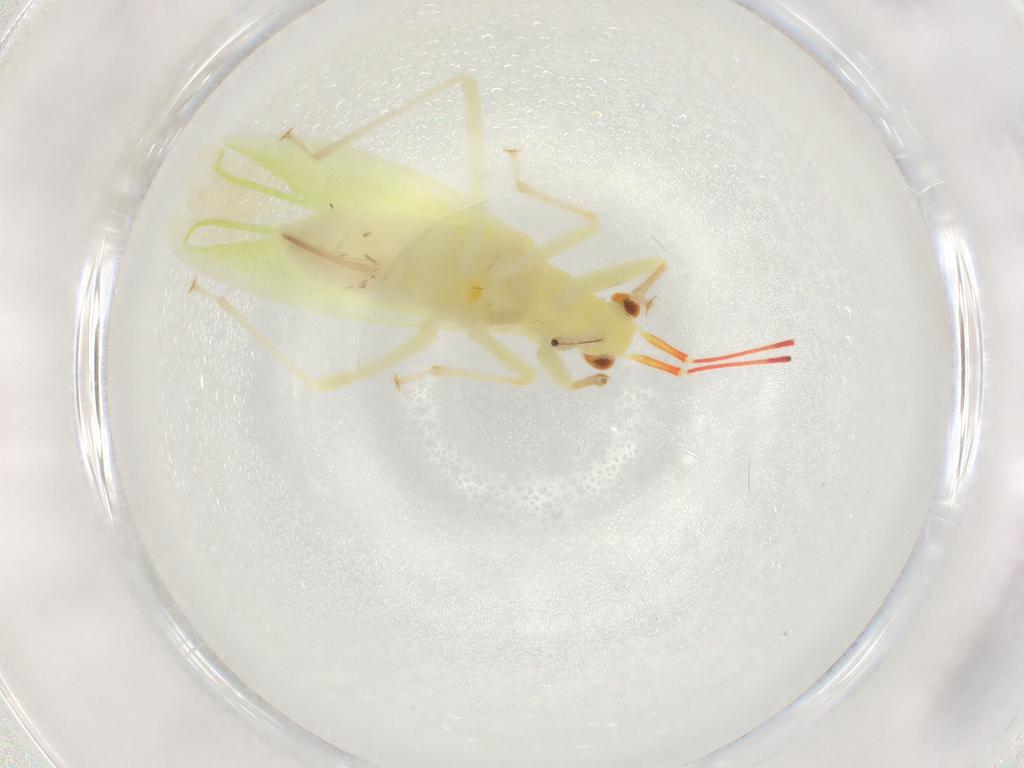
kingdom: Animalia
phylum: Arthropoda
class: Insecta
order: Hemiptera
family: Miridae
